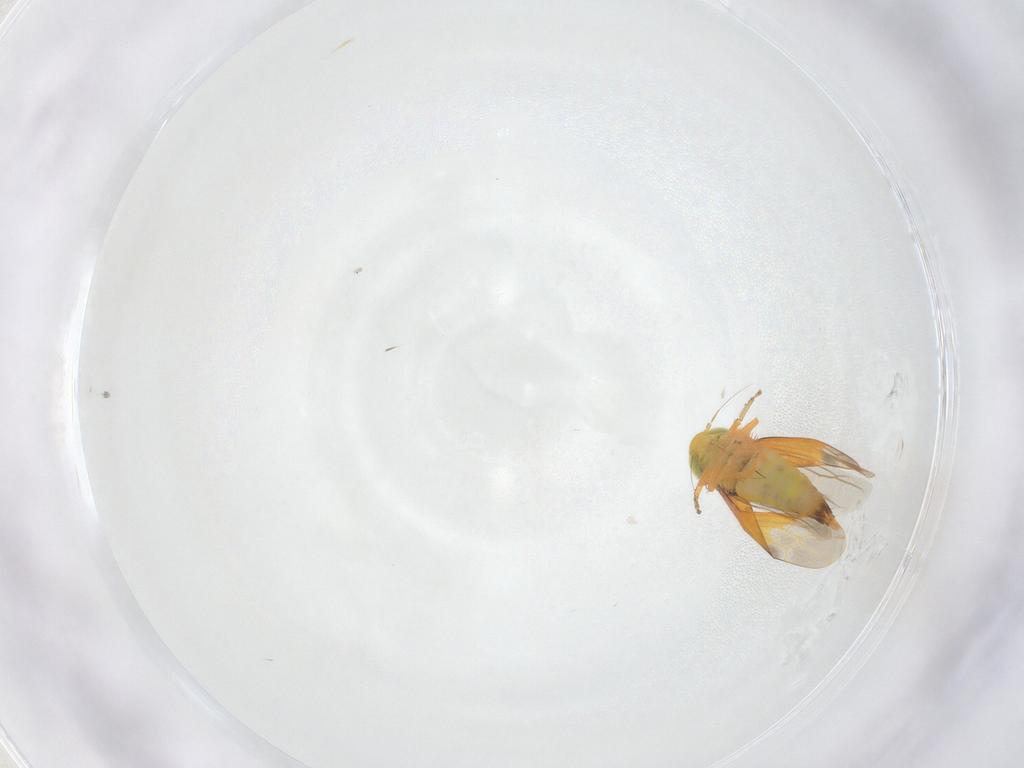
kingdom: Animalia
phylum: Arthropoda
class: Insecta
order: Hemiptera
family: Cicadellidae
